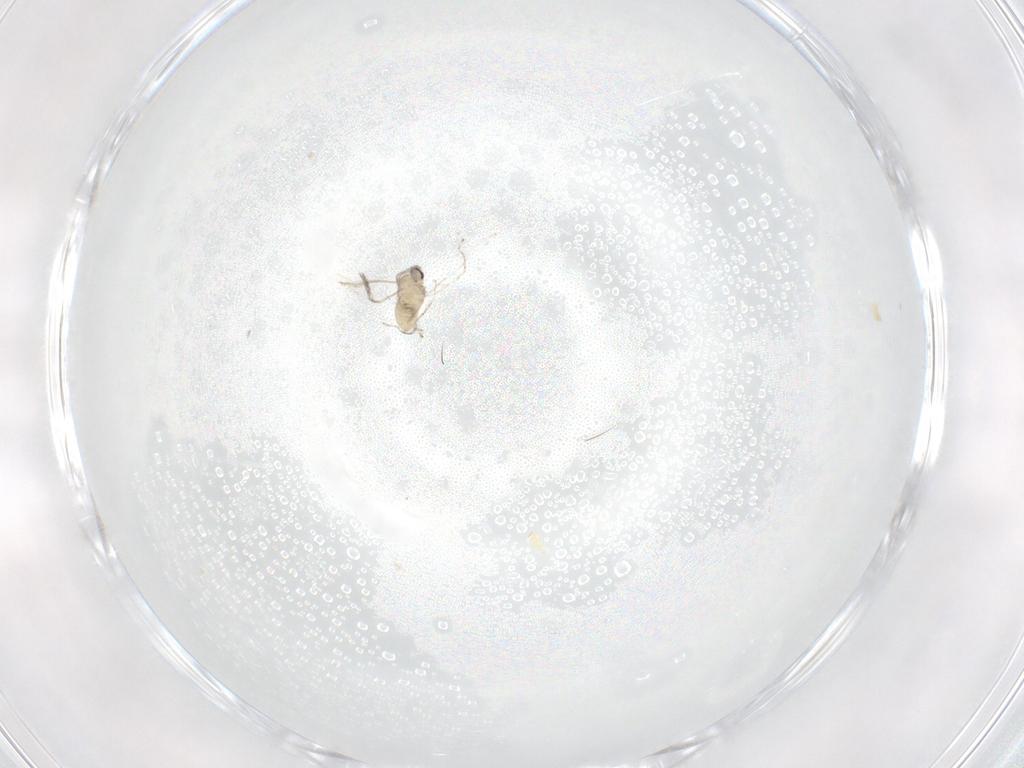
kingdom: Animalia
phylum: Arthropoda
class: Insecta
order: Diptera
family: Cecidomyiidae
